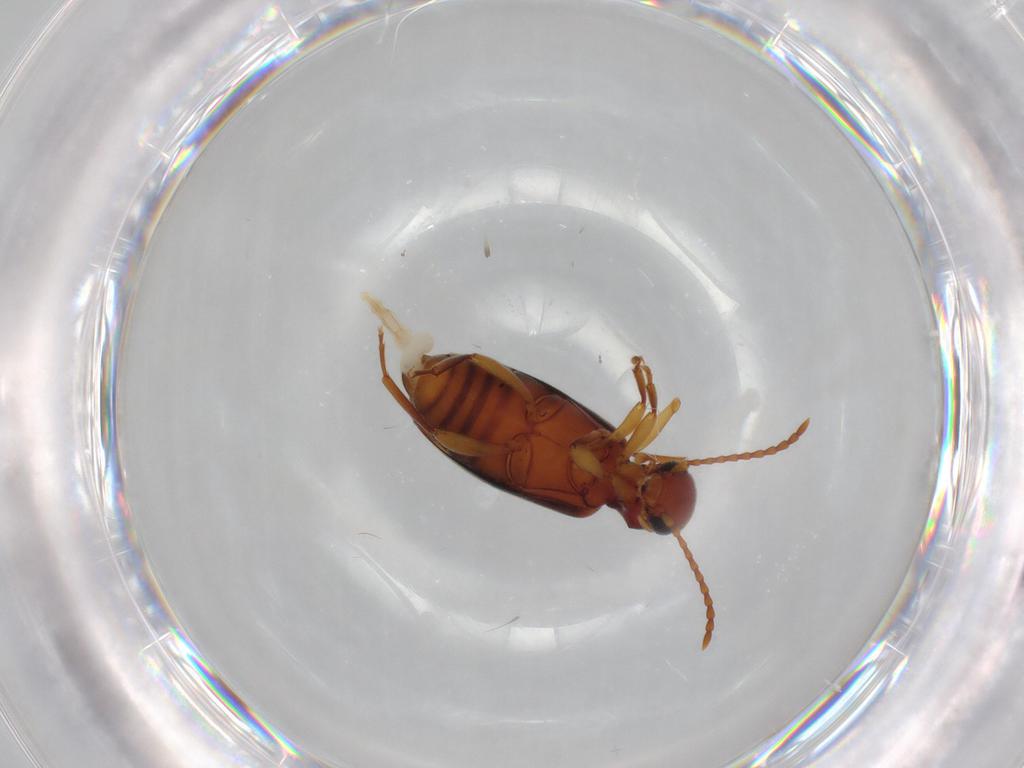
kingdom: Animalia
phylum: Arthropoda
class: Insecta
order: Coleoptera
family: Anthicidae
